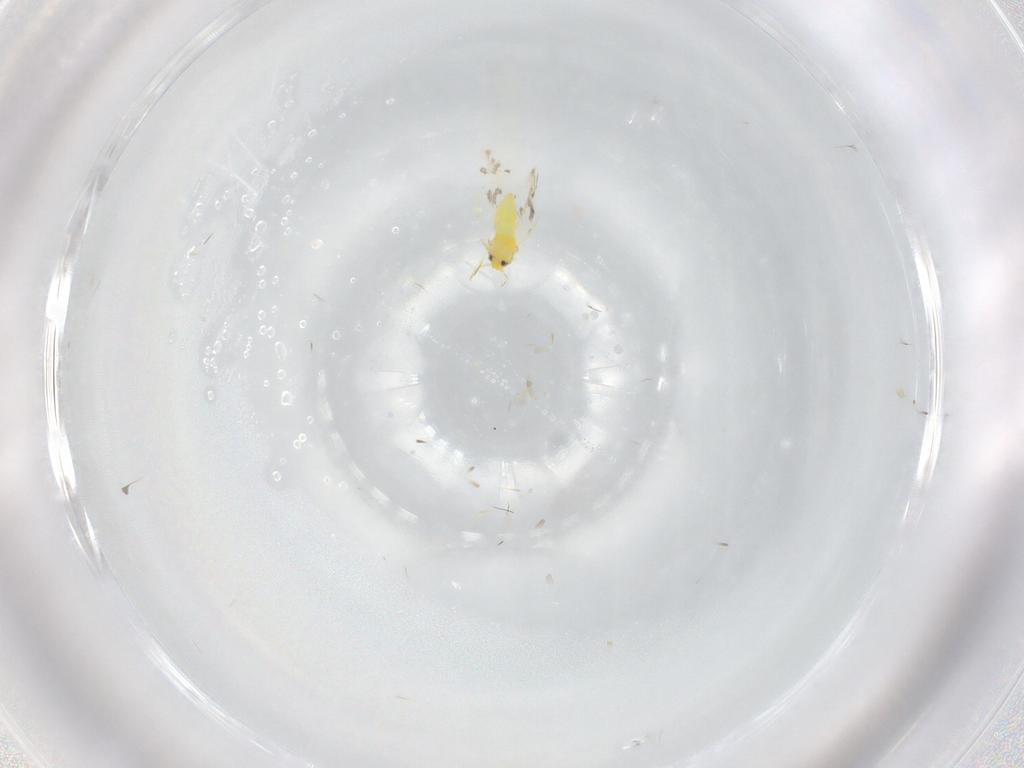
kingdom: Animalia
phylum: Arthropoda
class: Insecta
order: Hemiptera
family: Aleyrodidae
